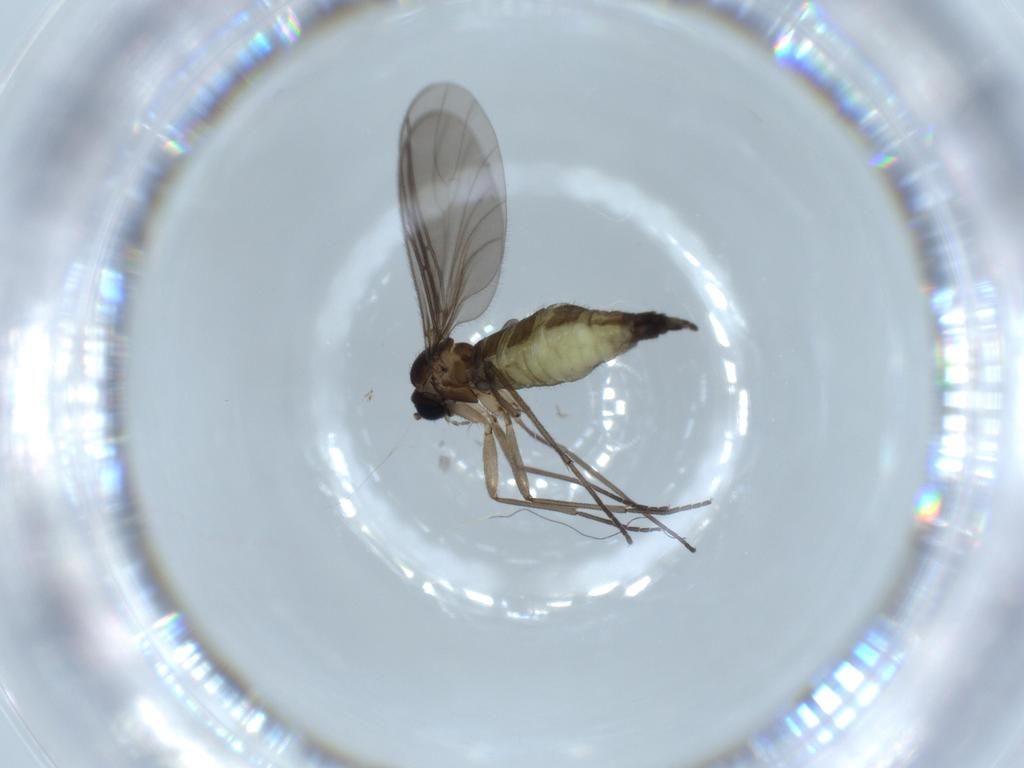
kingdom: Animalia
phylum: Arthropoda
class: Insecta
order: Diptera
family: Sciaridae
